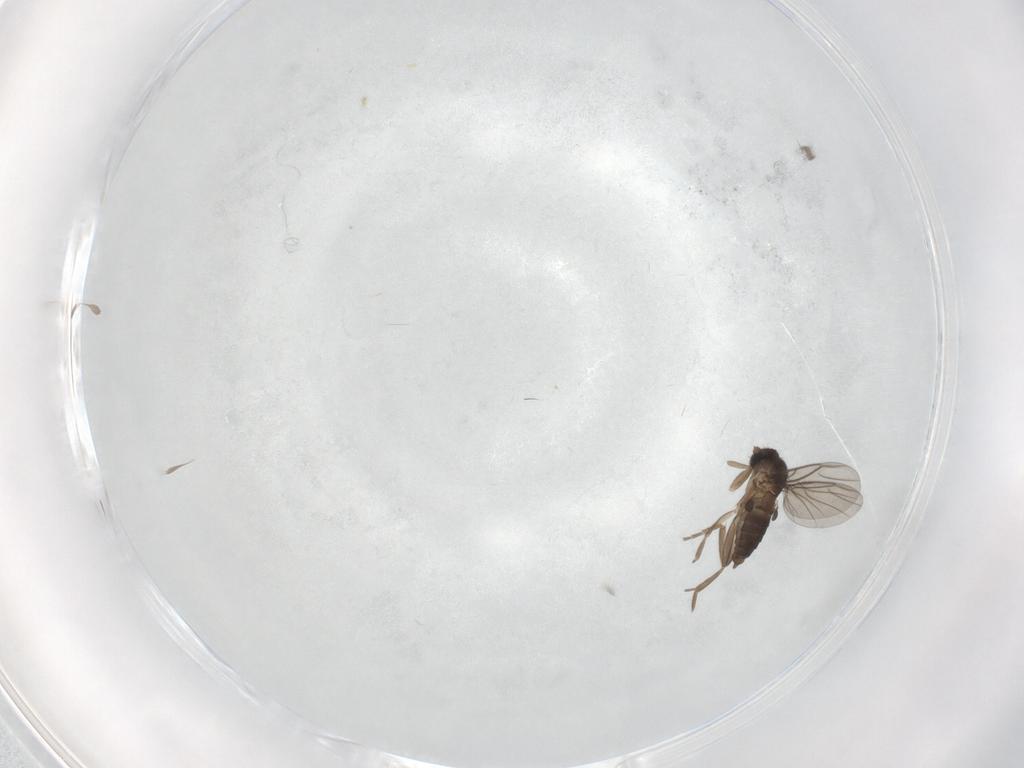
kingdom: Animalia
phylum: Arthropoda
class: Insecta
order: Diptera
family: Phoridae
